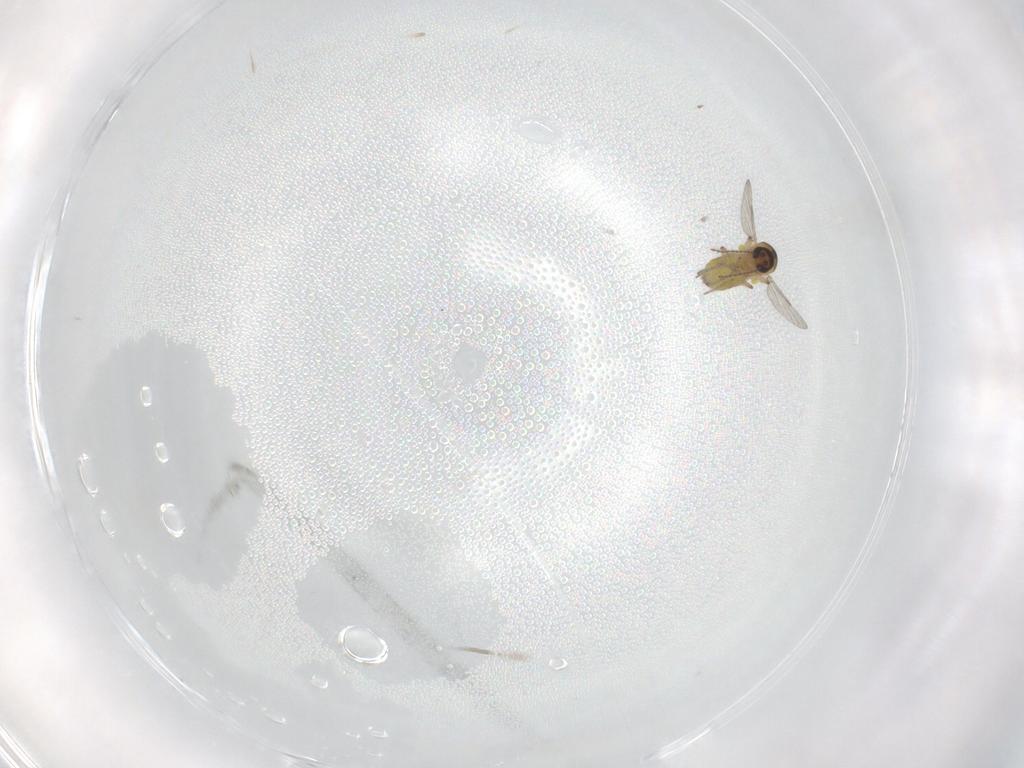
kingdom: Animalia
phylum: Arthropoda
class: Insecta
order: Diptera
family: Ceratopogonidae
